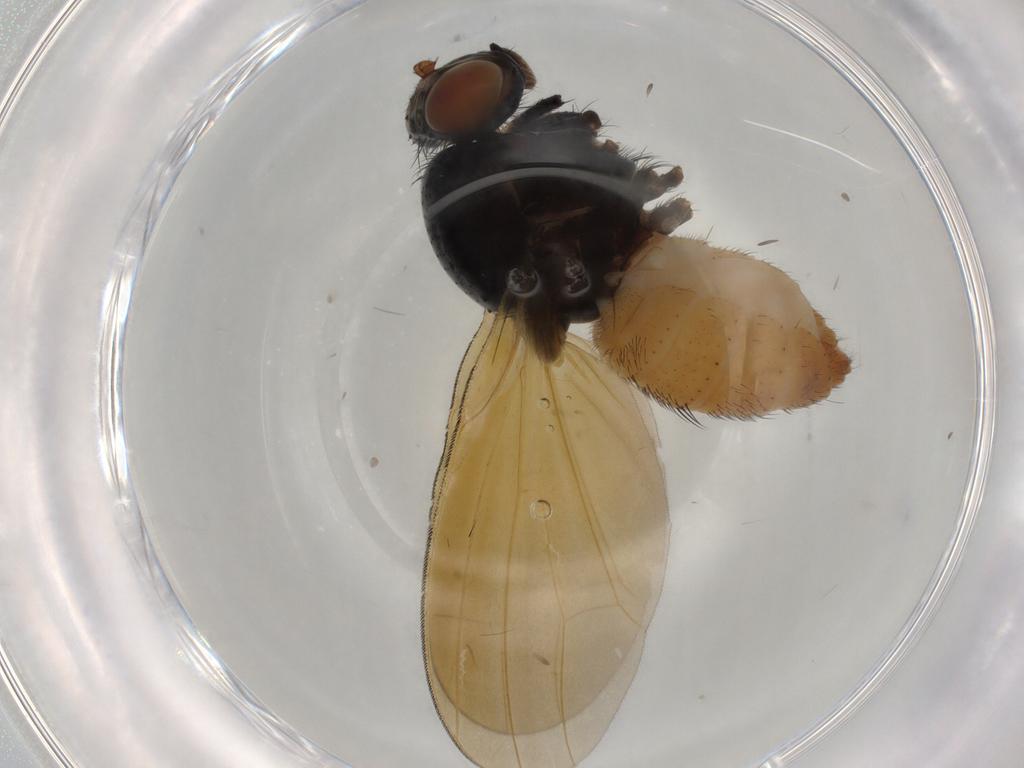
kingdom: Animalia
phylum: Arthropoda
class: Insecta
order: Diptera
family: Muscidae
